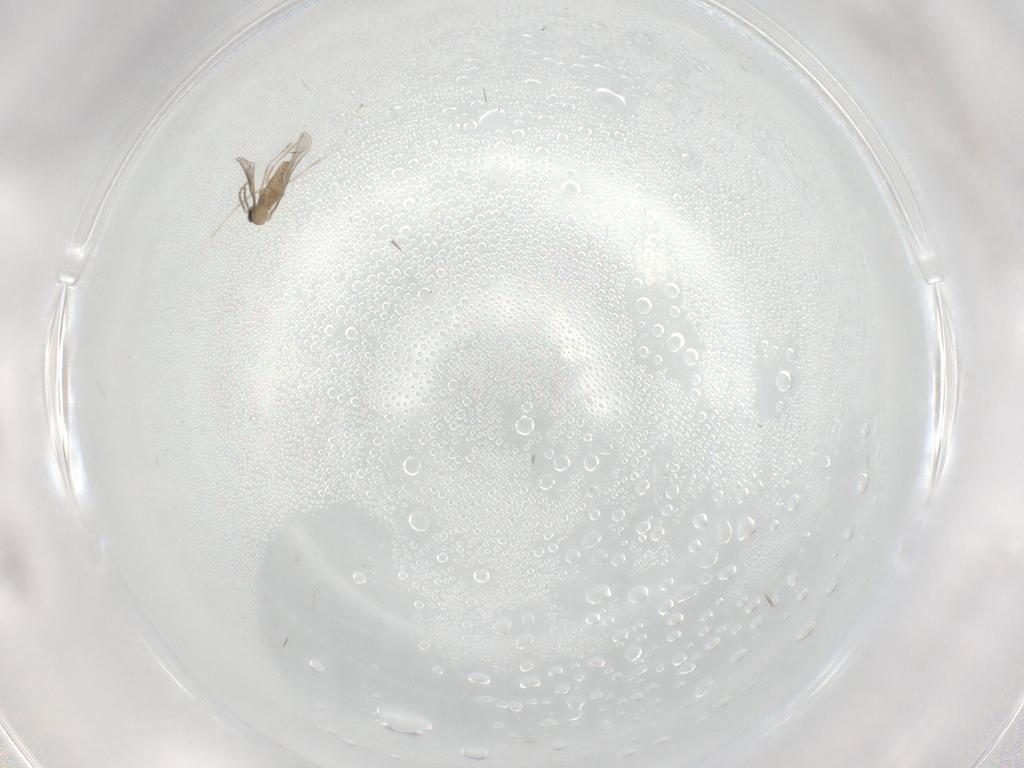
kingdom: Animalia
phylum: Arthropoda
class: Insecta
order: Diptera
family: Cecidomyiidae
